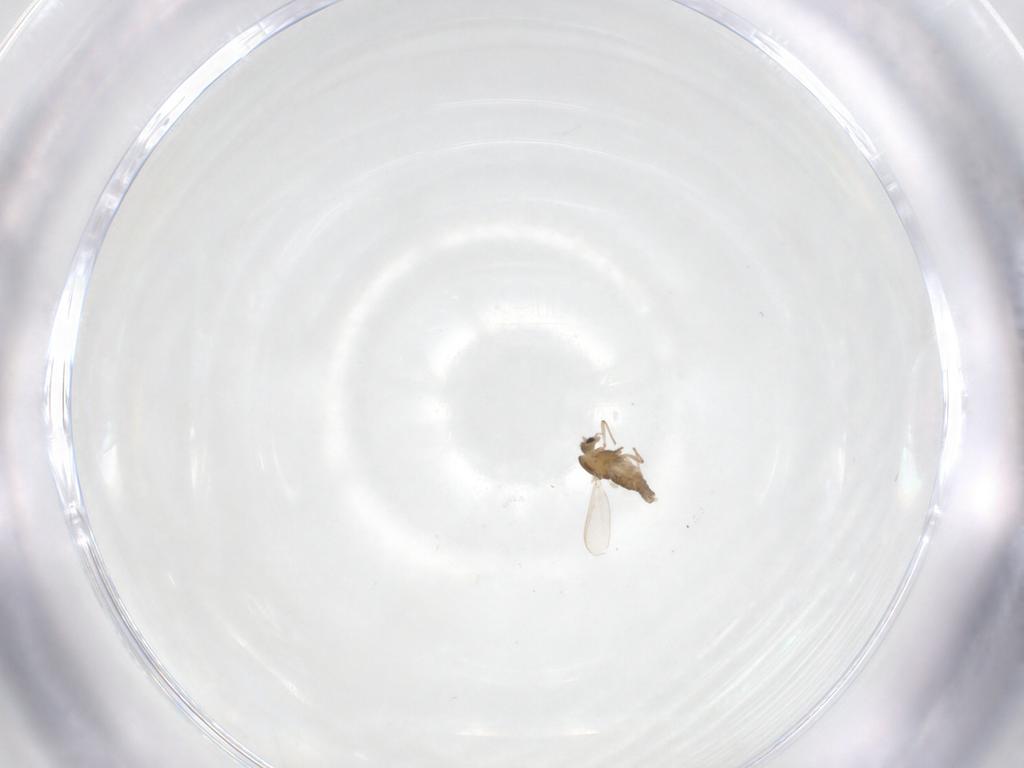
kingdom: Animalia
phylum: Arthropoda
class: Insecta
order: Diptera
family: Chironomidae
